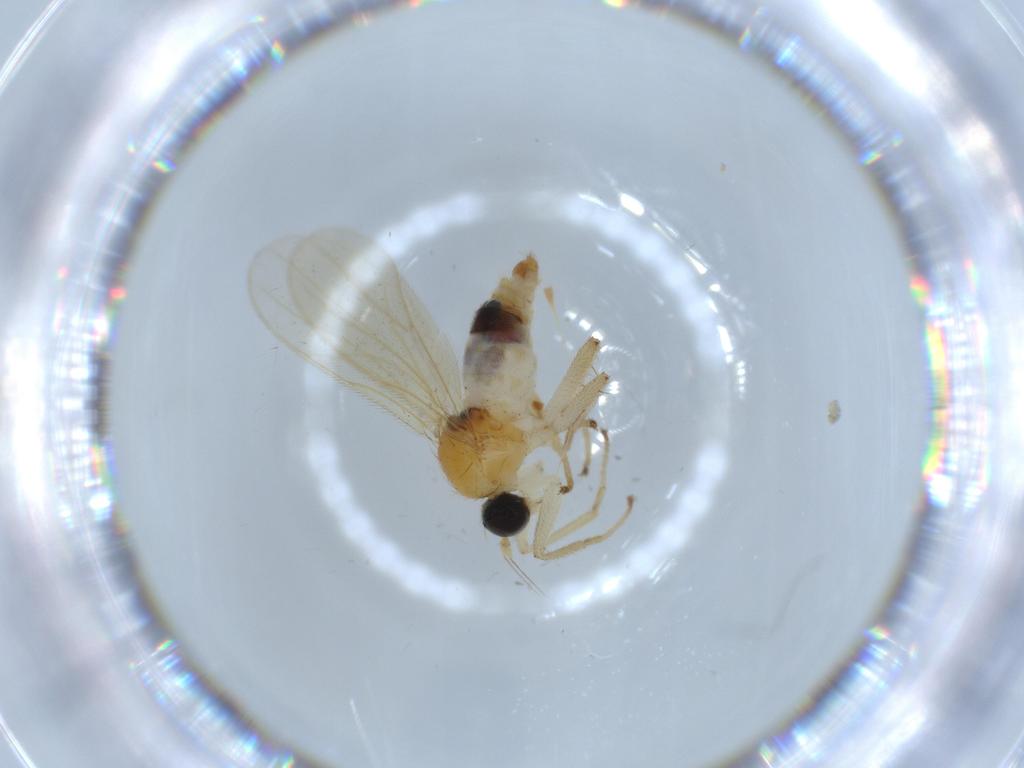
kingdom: Animalia
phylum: Arthropoda
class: Insecta
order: Diptera
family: Hybotidae
